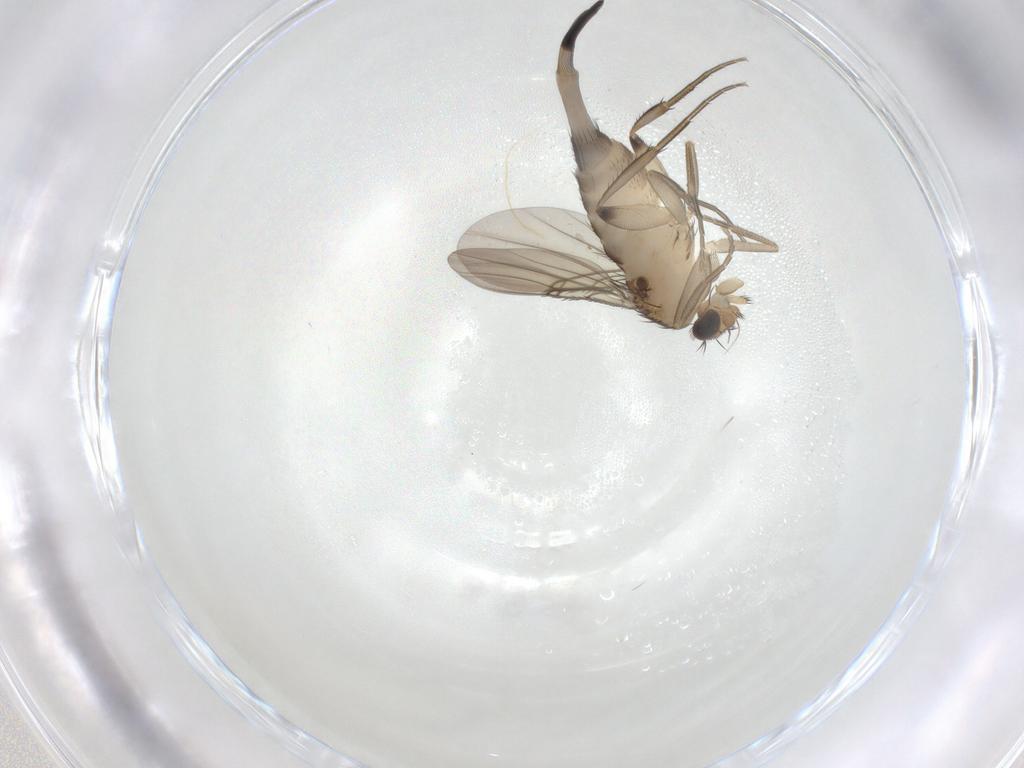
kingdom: Animalia
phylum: Arthropoda
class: Insecta
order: Diptera
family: Phoridae
